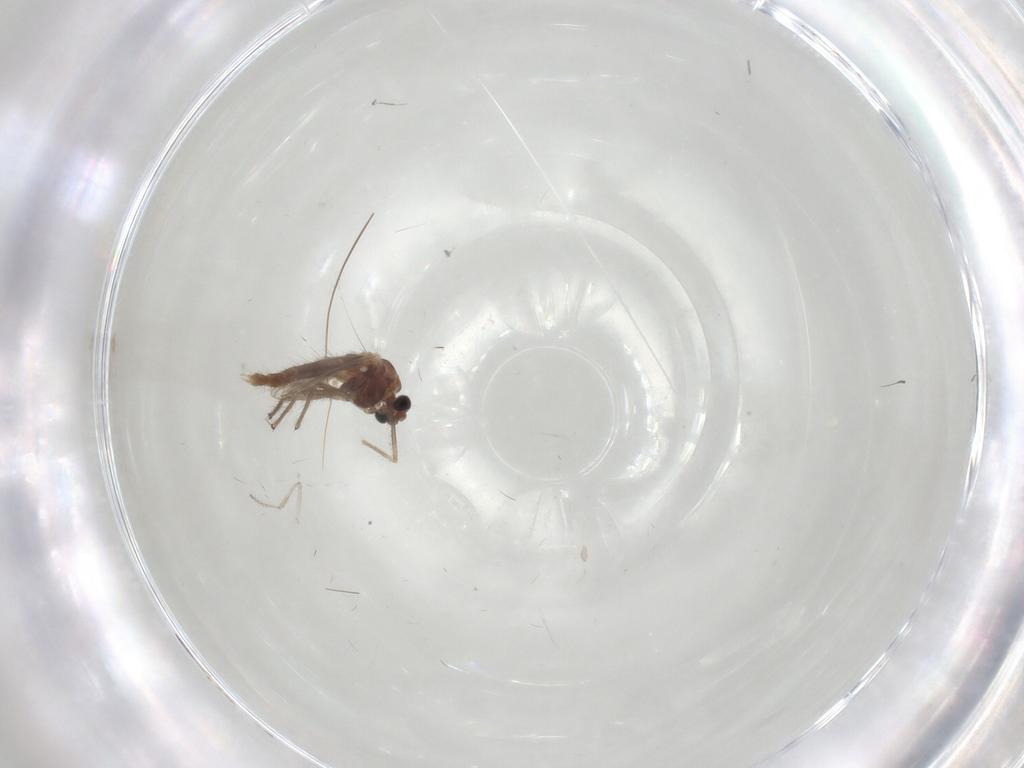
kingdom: Animalia
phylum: Arthropoda
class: Insecta
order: Diptera
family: Chironomidae
